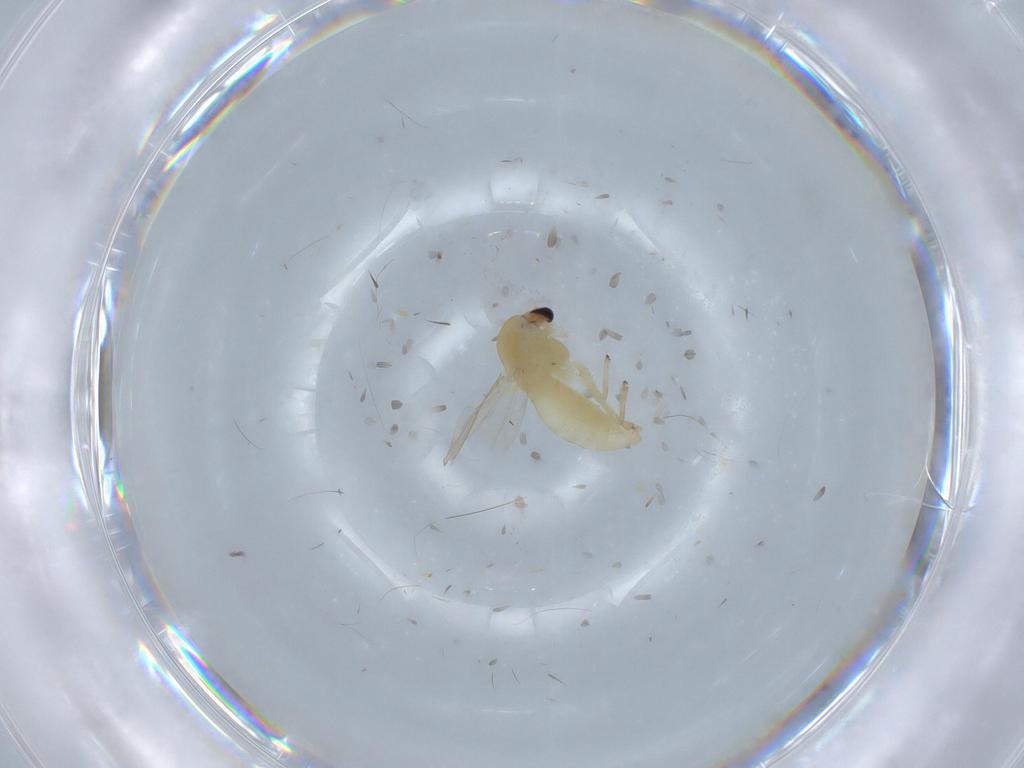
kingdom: Animalia
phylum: Arthropoda
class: Insecta
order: Diptera
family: Chironomidae
